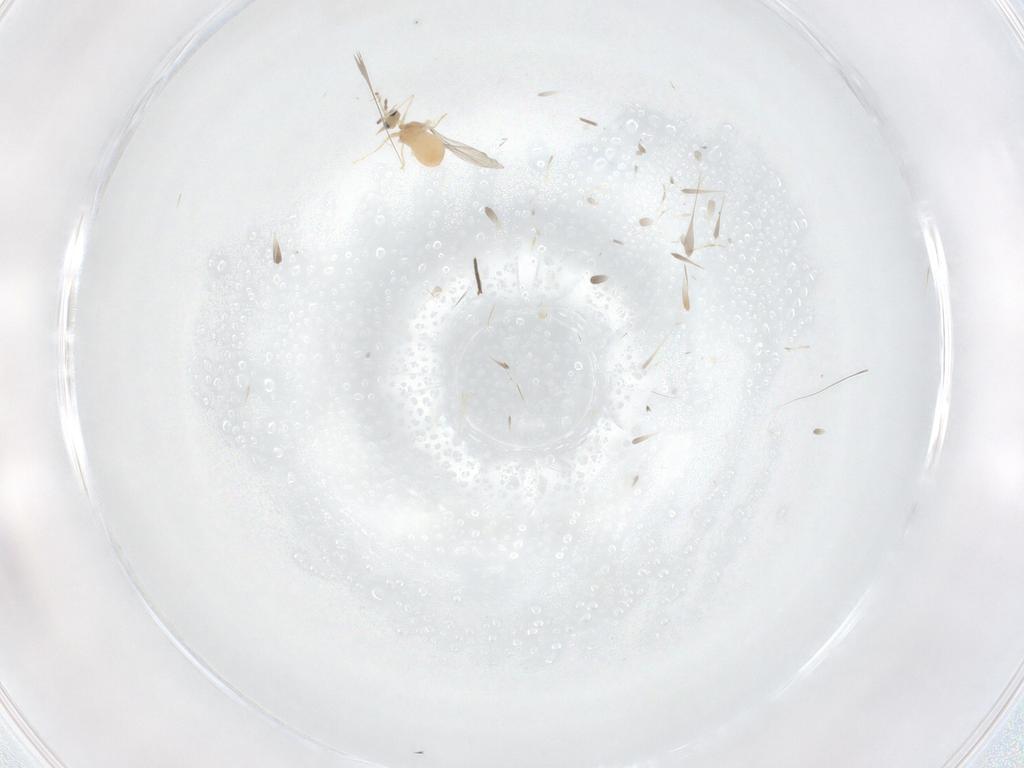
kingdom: Animalia
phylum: Arthropoda
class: Insecta
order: Diptera
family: Cecidomyiidae
